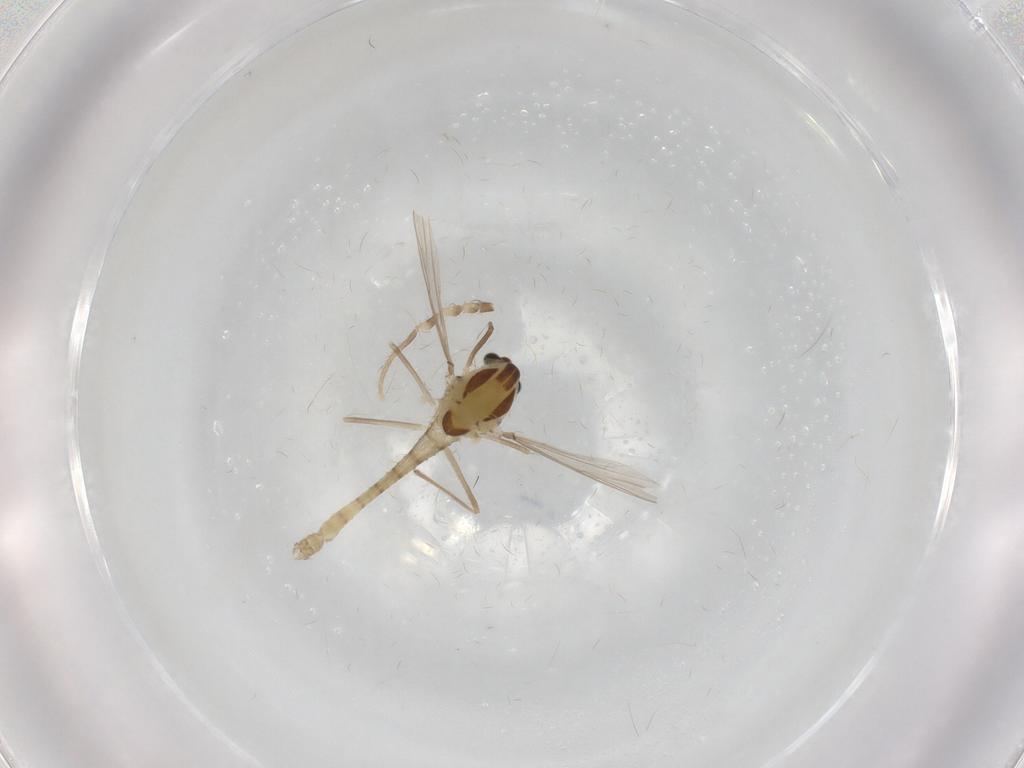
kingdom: Animalia
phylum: Arthropoda
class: Insecta
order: Diptera
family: Chironomidae
